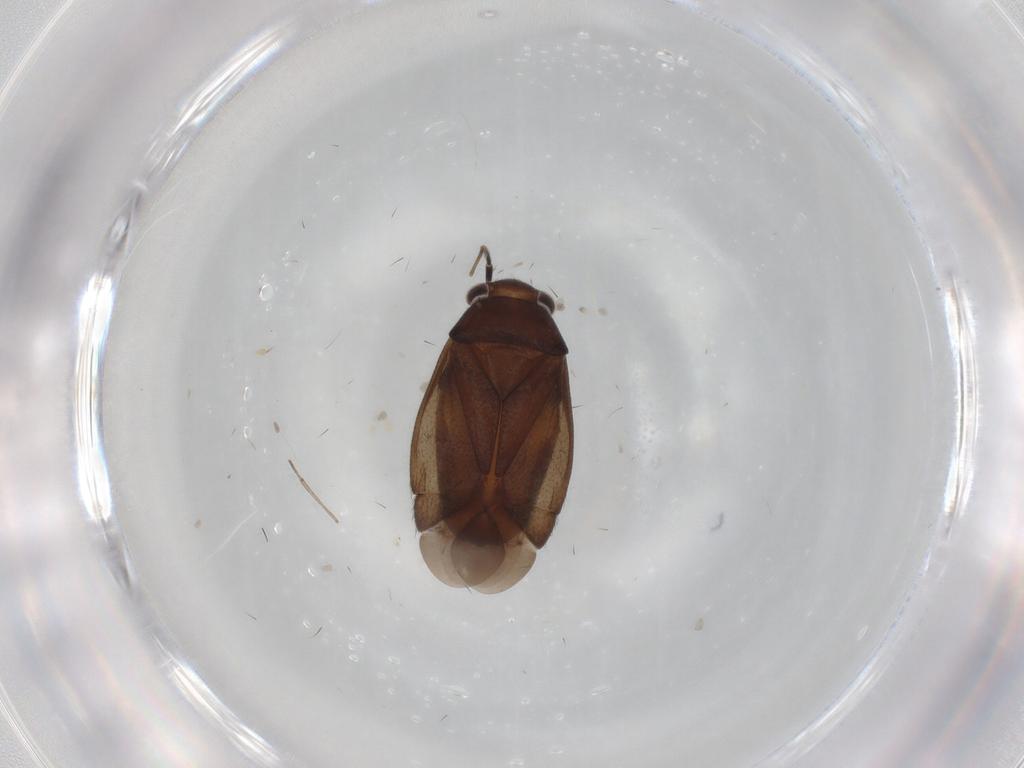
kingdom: Animalia
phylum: Arthropoda
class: Insecta
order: Hemiptera
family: Miridae
